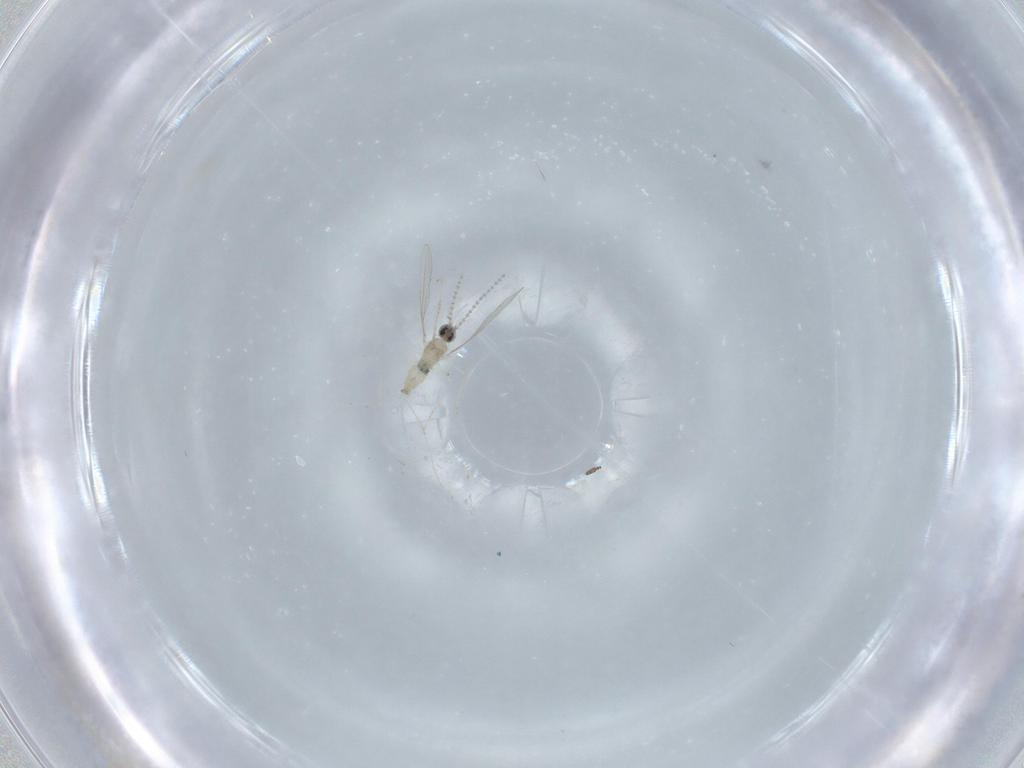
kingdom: Animalia
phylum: Arthropoda
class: Insecta
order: Diptera
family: Cecidomyiidae
